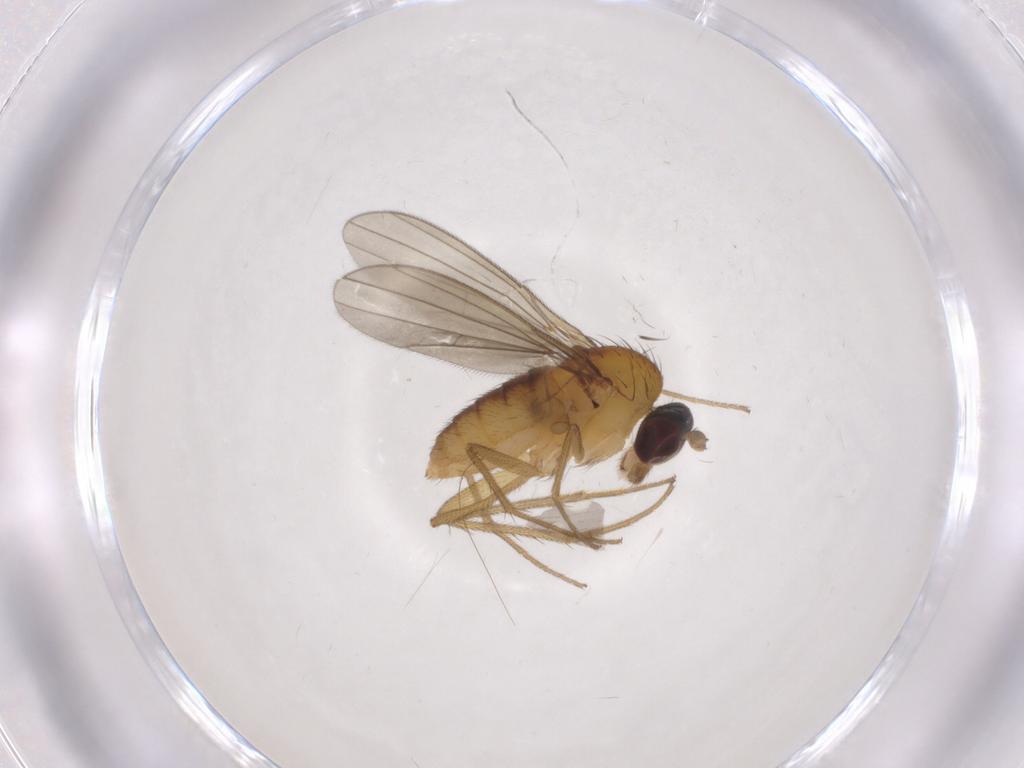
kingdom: Animalia
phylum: Arthropoda
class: Insecta
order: Diptera
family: Dolichopodidae
